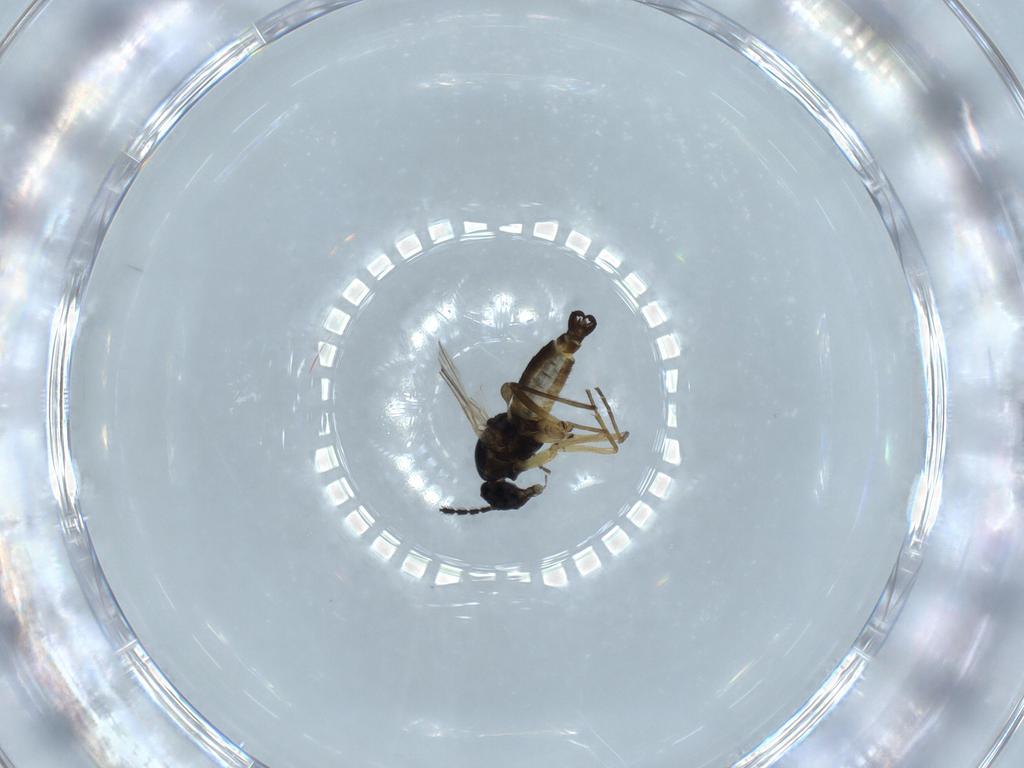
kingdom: Animalia
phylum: Arthropoda
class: Insecta
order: Diptera
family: Sciaridae
